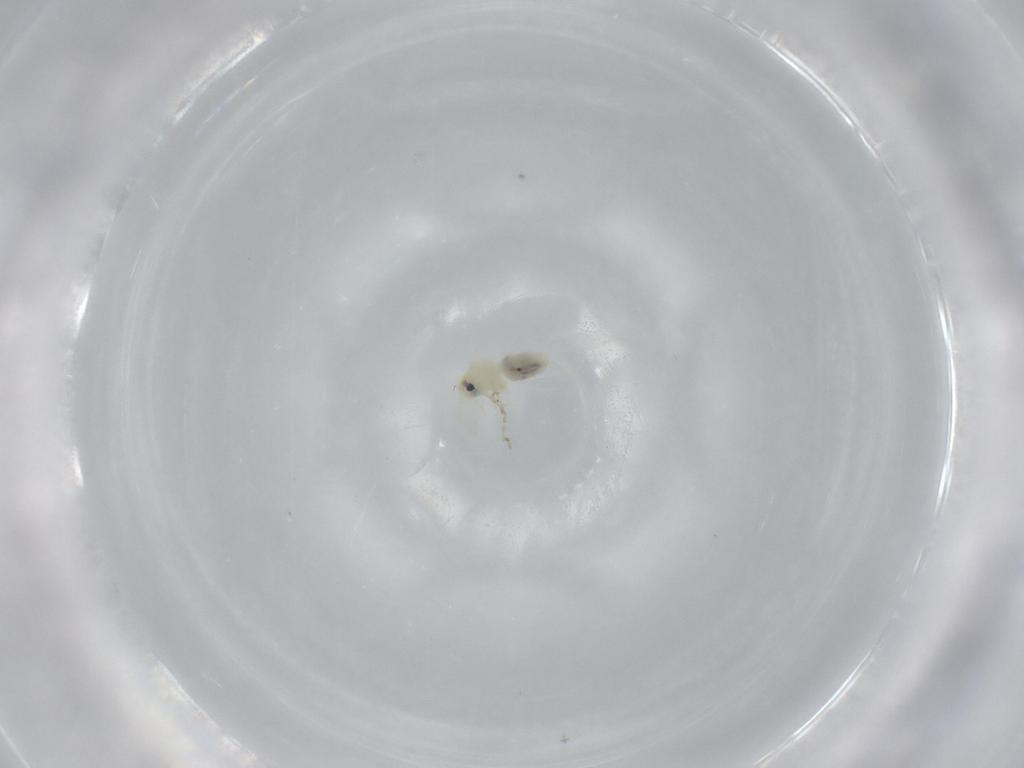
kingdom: Animalia
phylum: Arthropoda
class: Insecta
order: Hemiptera
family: Aleyrodidae
